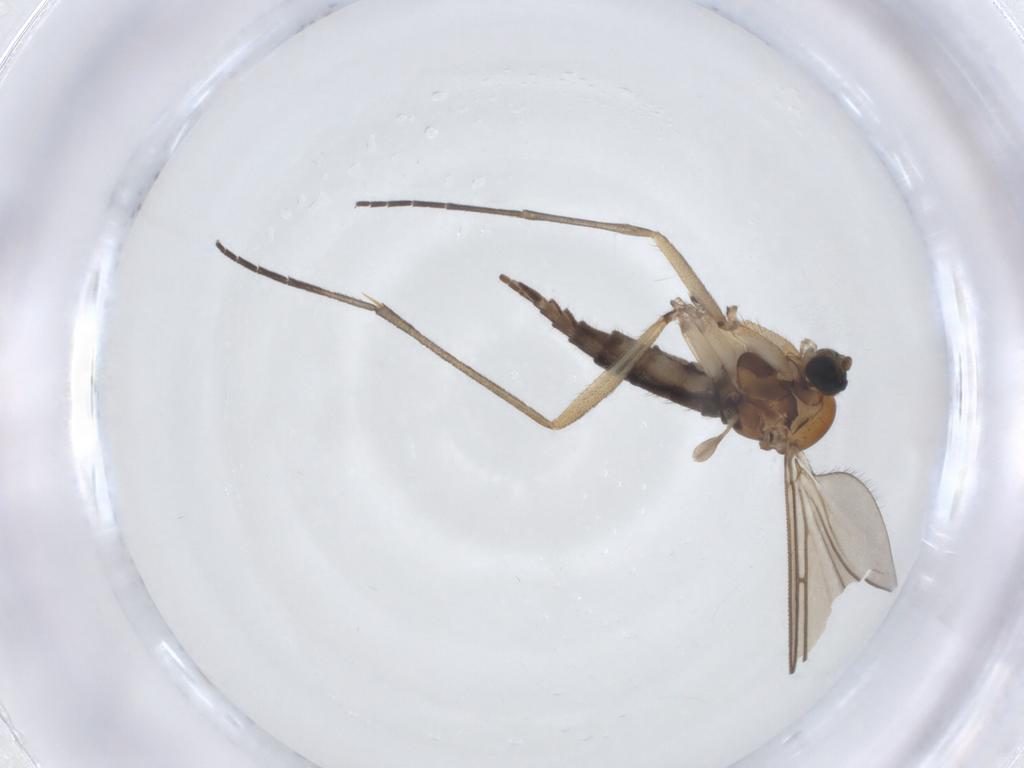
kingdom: Animalia
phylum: Arthropoda
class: Insecta
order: Diptera
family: Sciaridae
